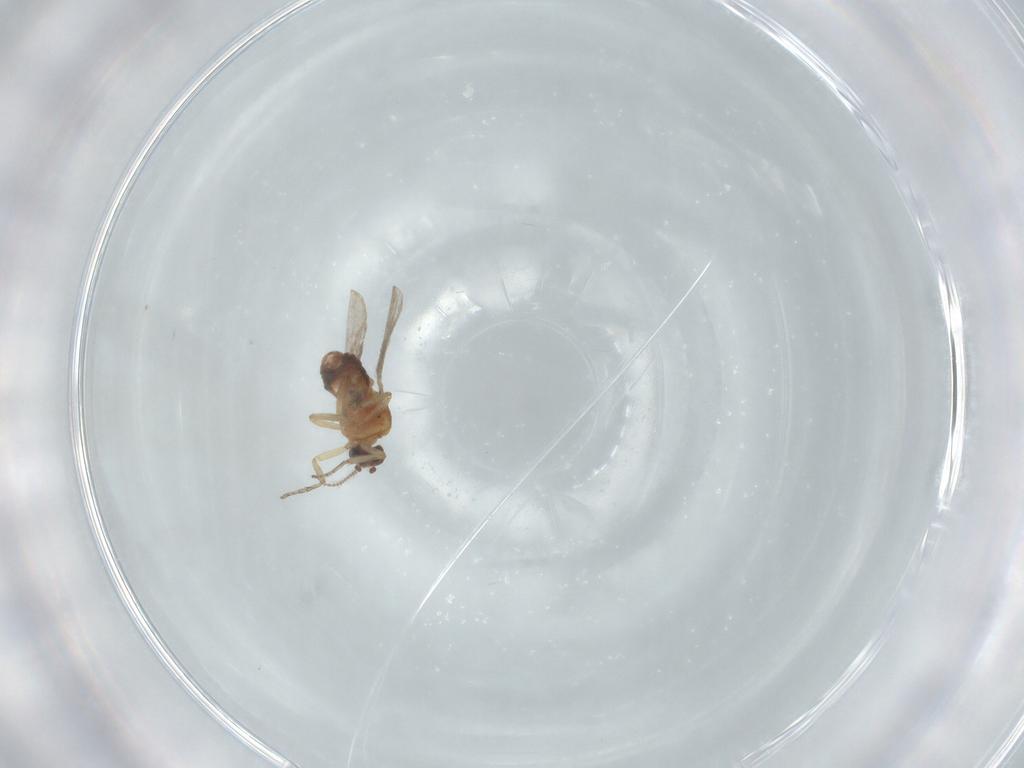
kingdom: Animalia
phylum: Arthropoda
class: Insecta
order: Diptera
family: Ceratopogonidae
